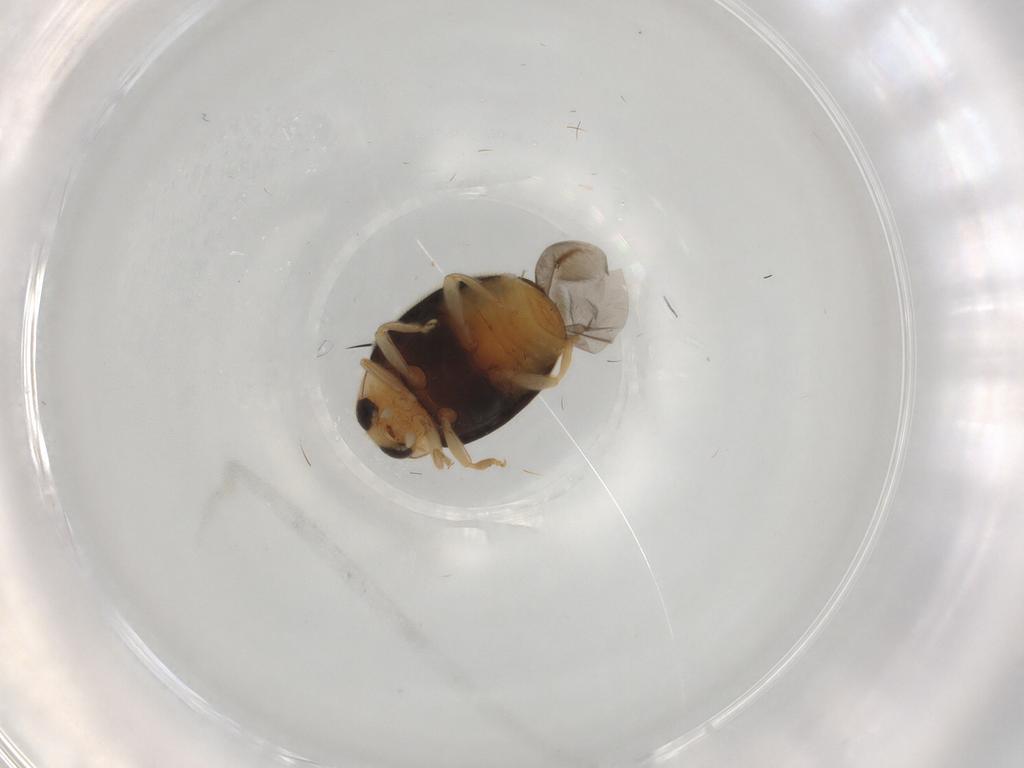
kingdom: Animalia
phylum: Arthropoda
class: Insecta
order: Coleoptera
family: Coccinellidae
